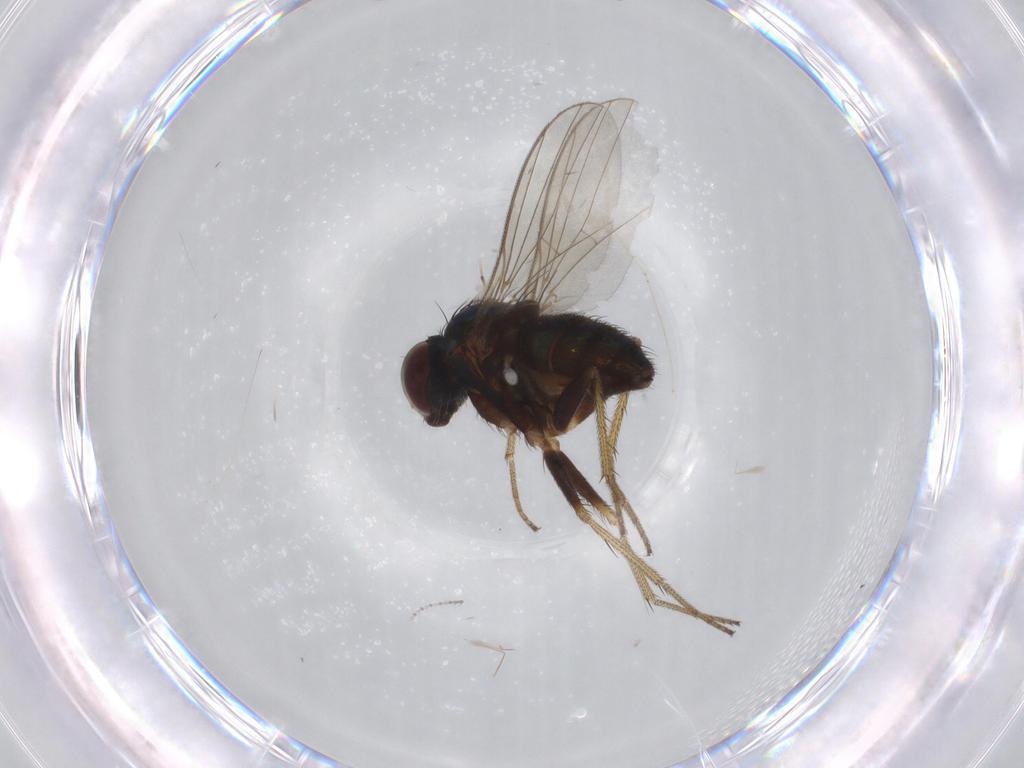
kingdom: Animalia
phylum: Arthropoda
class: Insecta
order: Diptera
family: Cecidomyiidae
